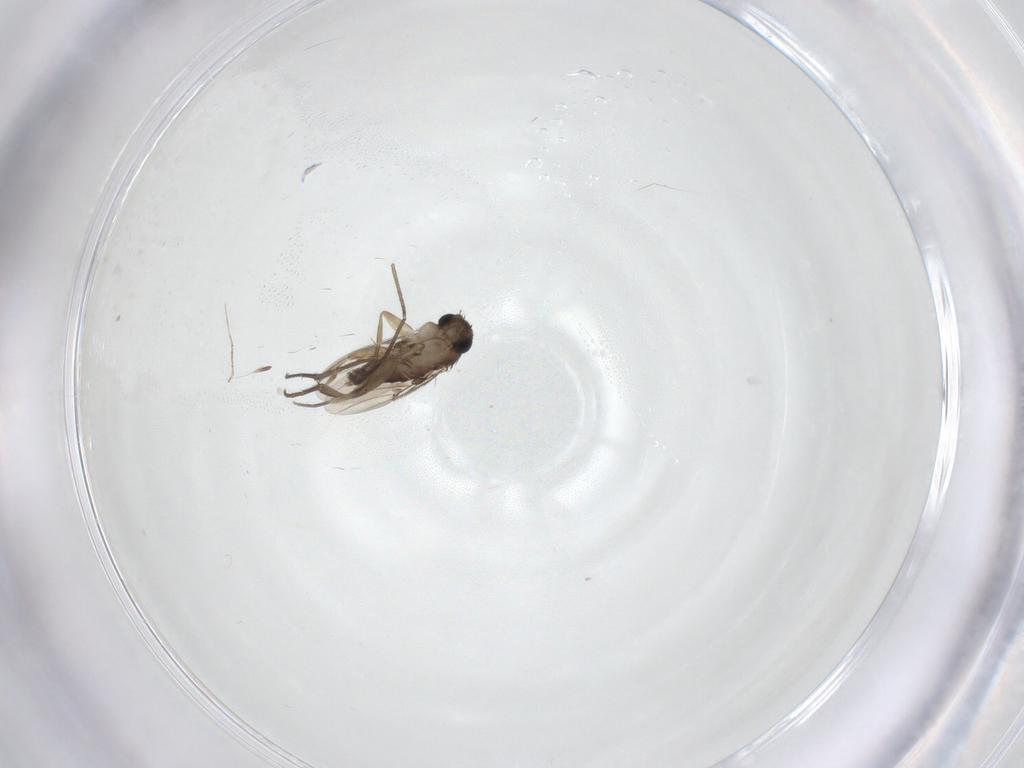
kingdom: Animalia
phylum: Arthropoda
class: Insecta
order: Diptera
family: Cecidomyiidae
